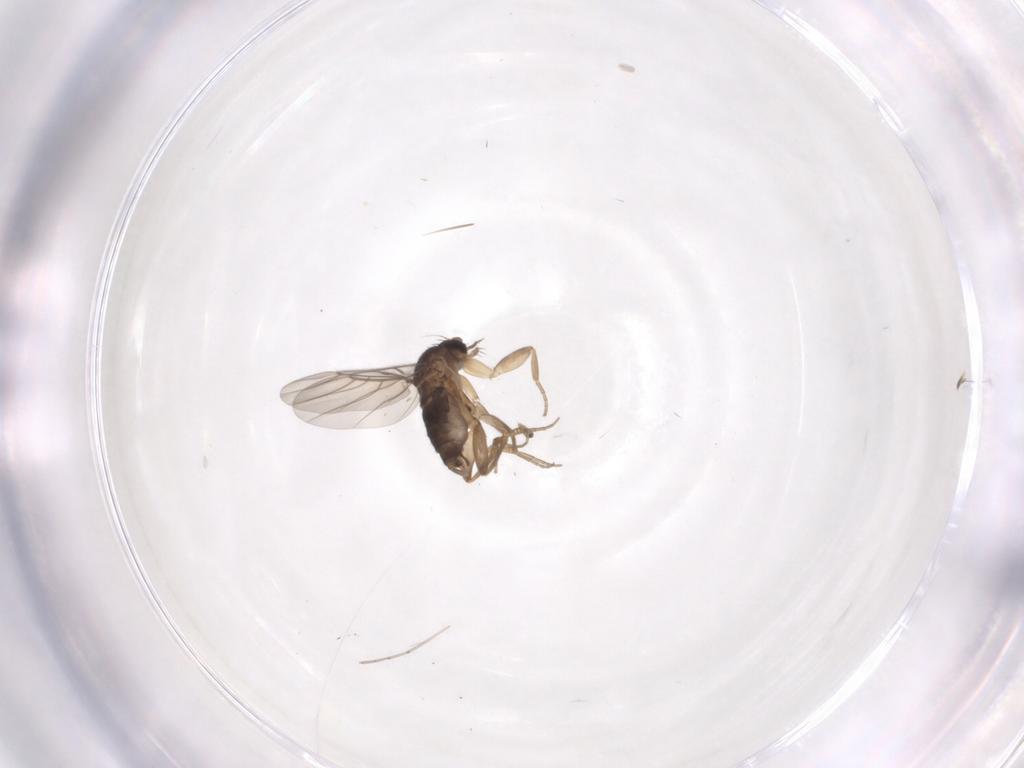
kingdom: Animalia
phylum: Arthropoda
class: Insecta
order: Diptera
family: Phoridae
